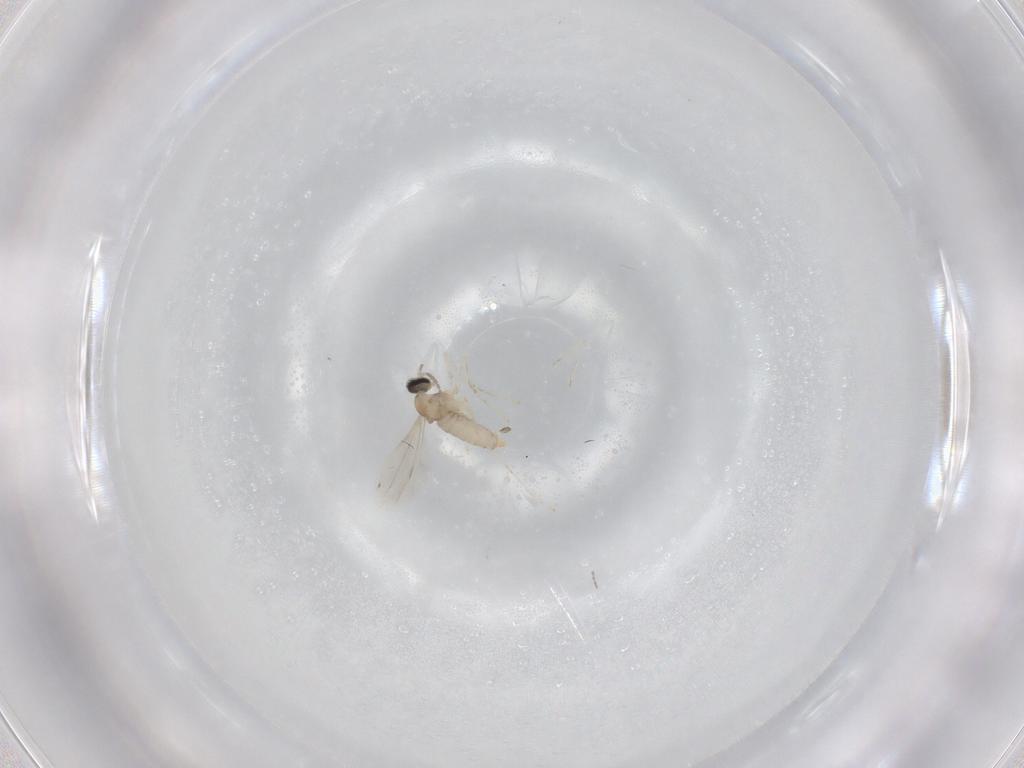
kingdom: Animalia
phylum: Arthropoda
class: Insecta
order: Diptera
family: Cecidomyiidae
